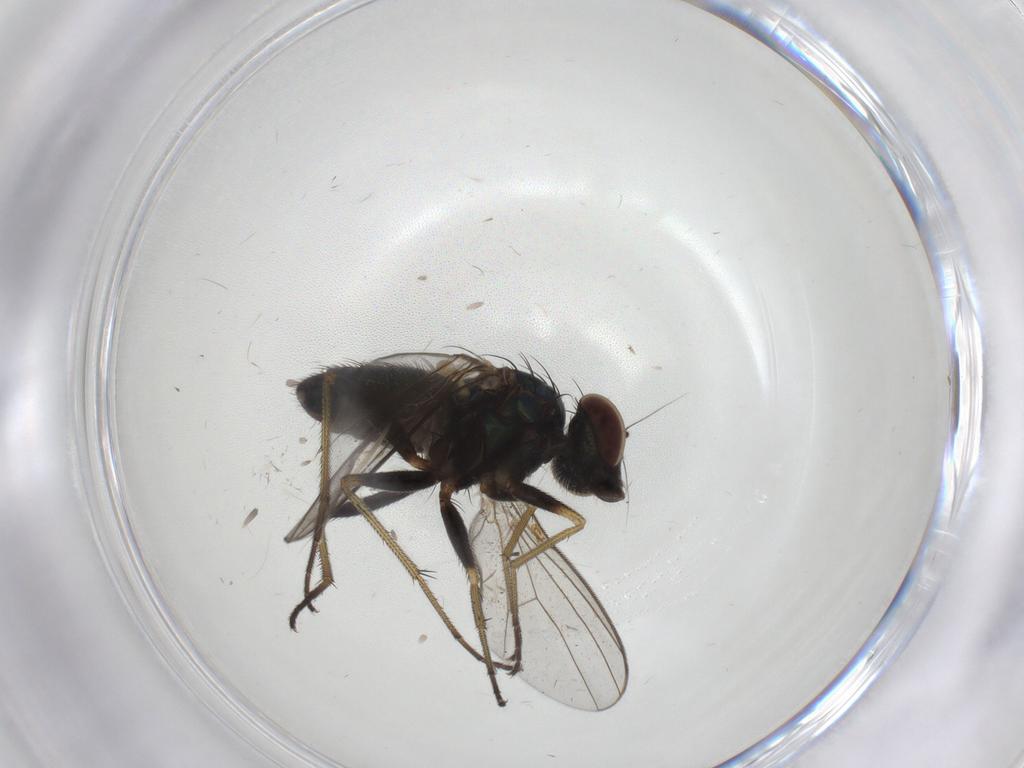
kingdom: Animalia
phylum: Arthropoda
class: Insecta
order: Diptera
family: Dolichopodidae
